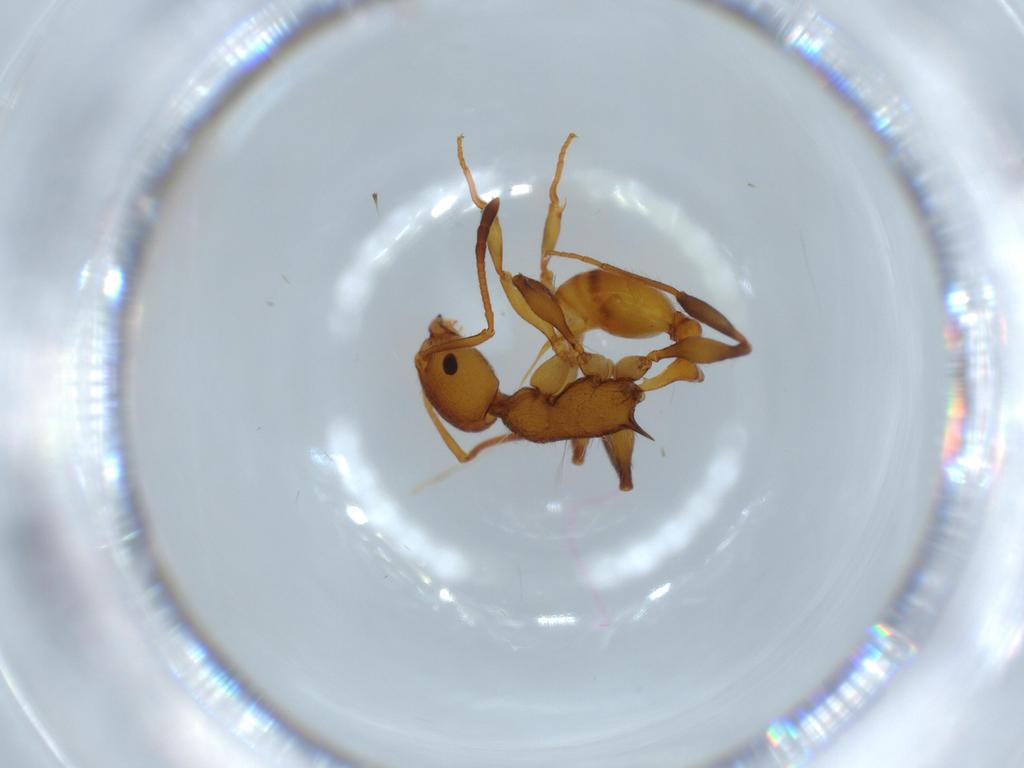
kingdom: Animalia
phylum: Arthropoda
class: Insecta
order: Hymenoptera
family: Formicidae
